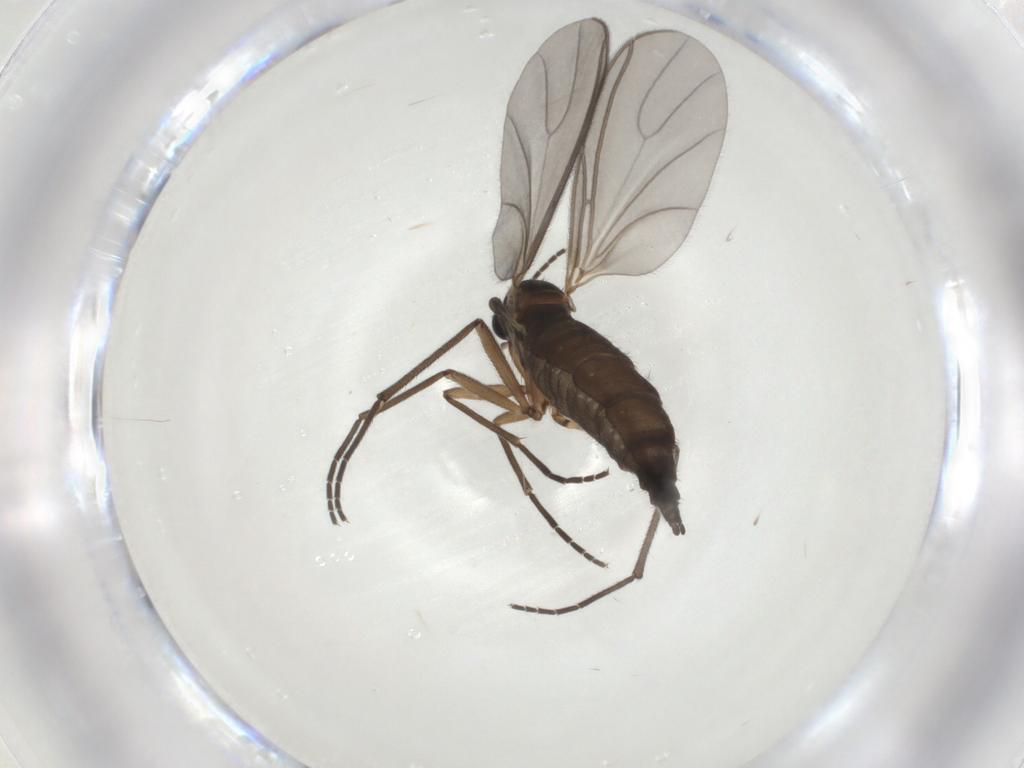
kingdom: Animalia
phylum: Arthropoda
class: Insecta
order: Diptera
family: Sciaridae
